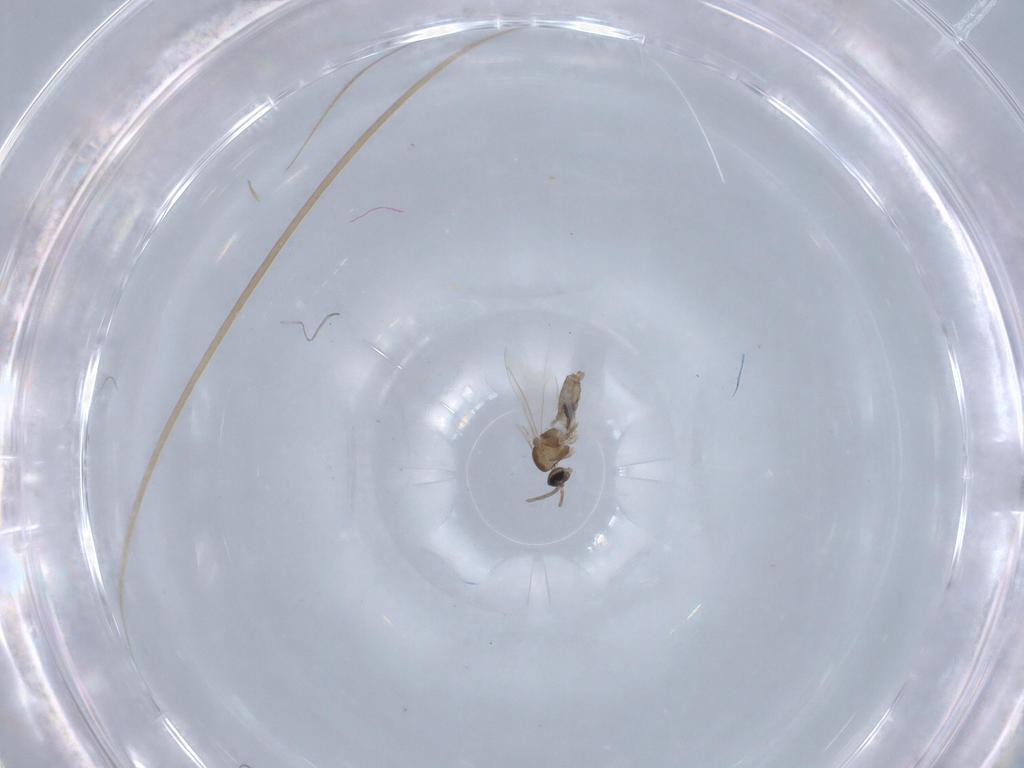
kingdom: Animalia
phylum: Arthropoda
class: Insecta
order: Diptera
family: Cecidomyiidae
